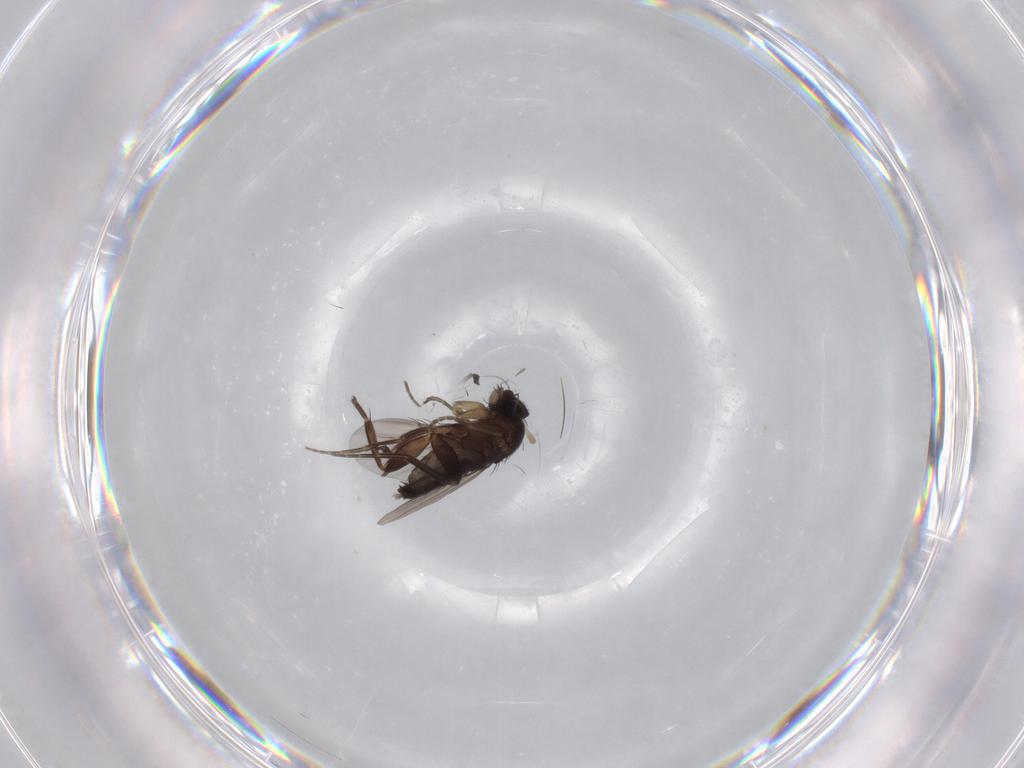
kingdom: Animalia
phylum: Arthropoda
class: Insecta
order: Diptera
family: Phoridae
